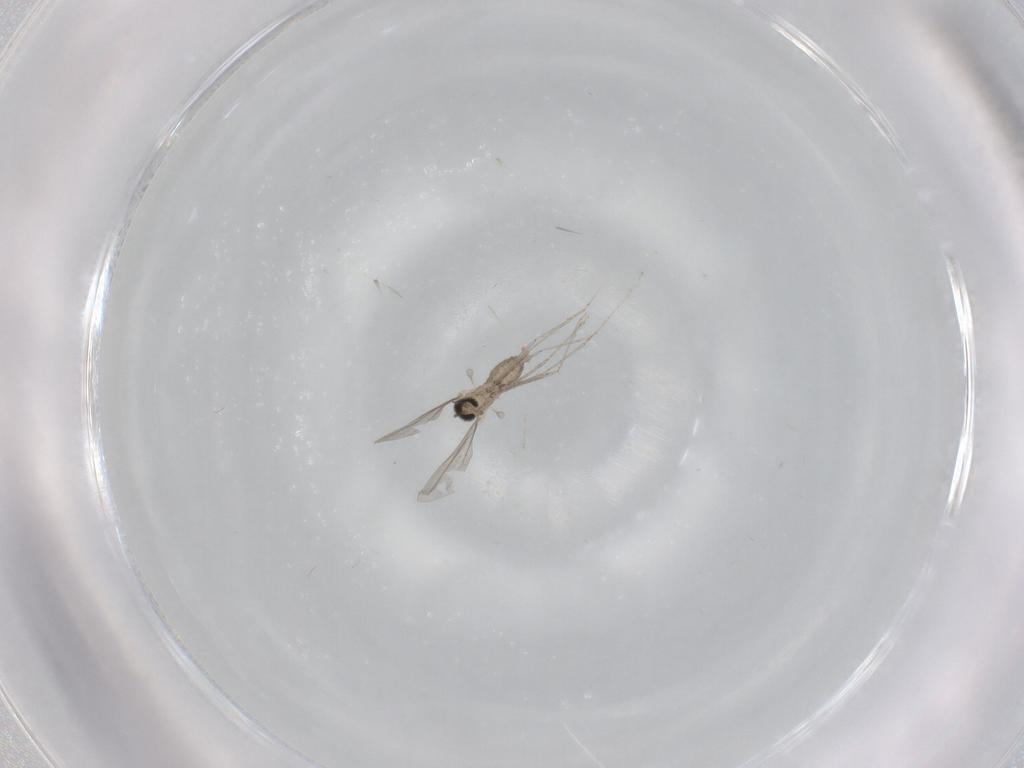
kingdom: Animalia
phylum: Arthropoda
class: Insecta
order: Diptera
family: Cecidomyiidae
